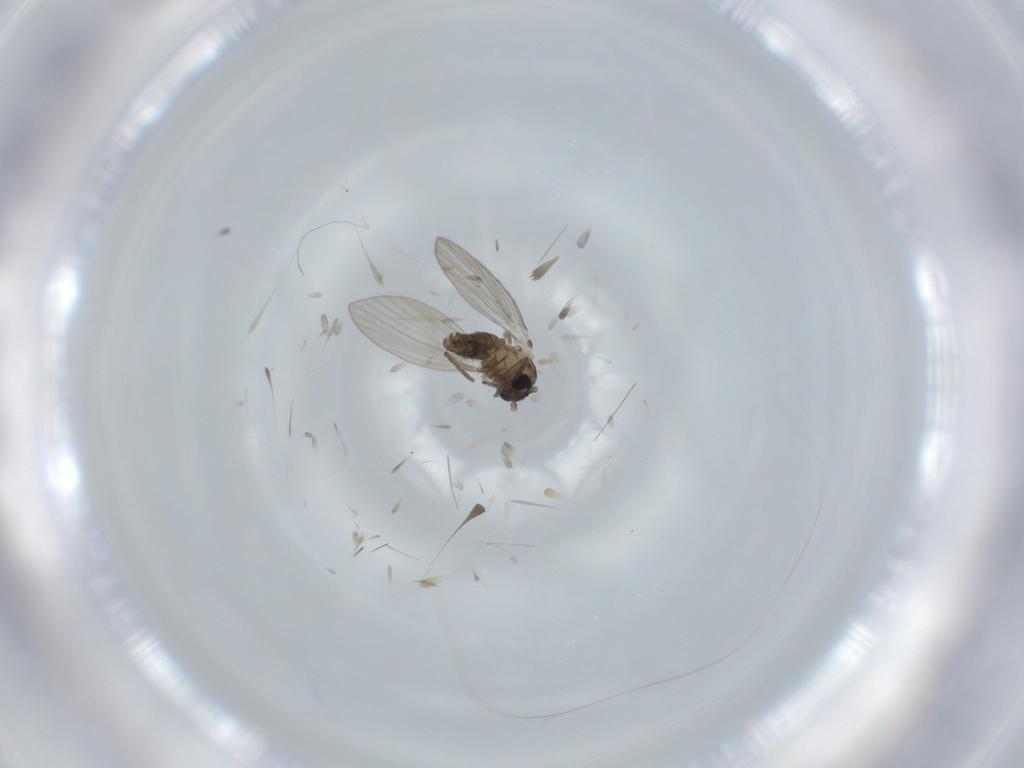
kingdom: Animalia
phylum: Arthropoda
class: Insecta
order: Diptera
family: Psychodidae
